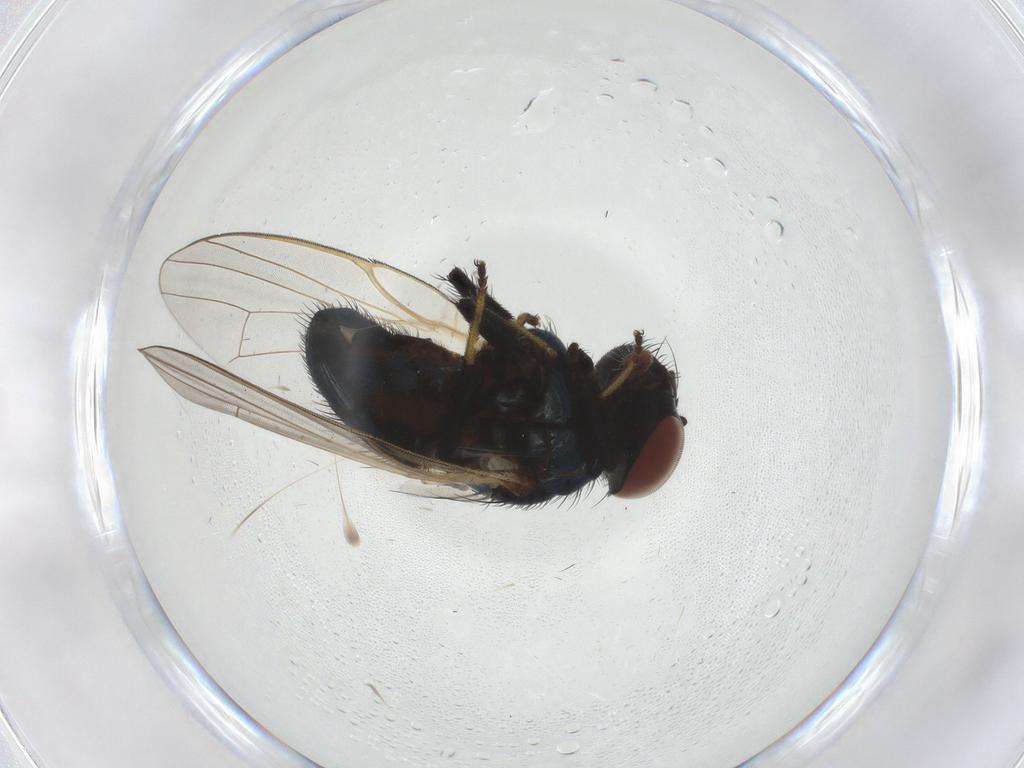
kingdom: Animalia
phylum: Arthropoda
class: Insecta
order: Diptera
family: Lonchaeidae
